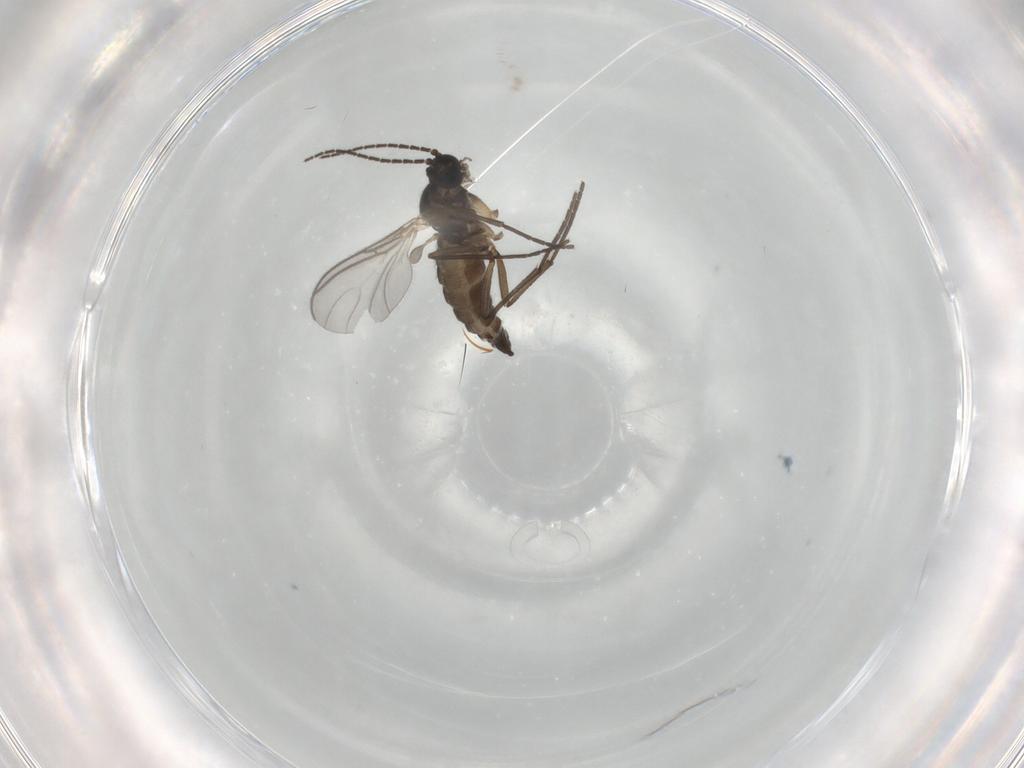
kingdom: Animalia
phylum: Arthropoda
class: Insecta
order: Diptera
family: Sciaridae
